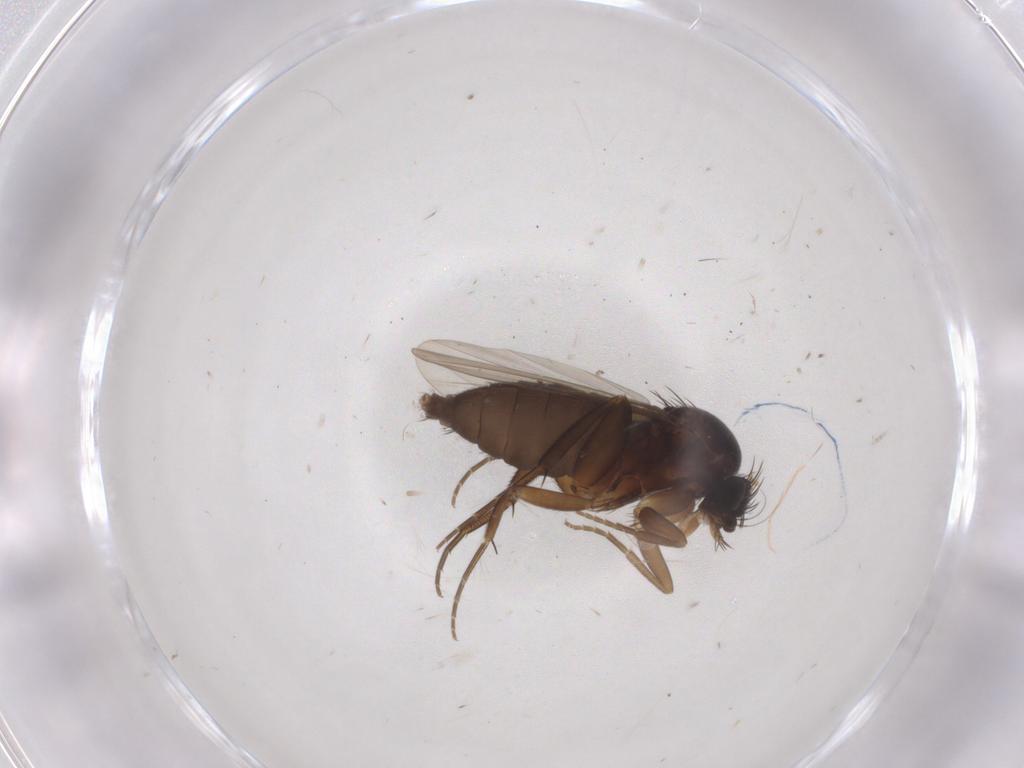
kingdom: Animalia
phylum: Arthropoda
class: Insecta
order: Diptera
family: Phoridae
